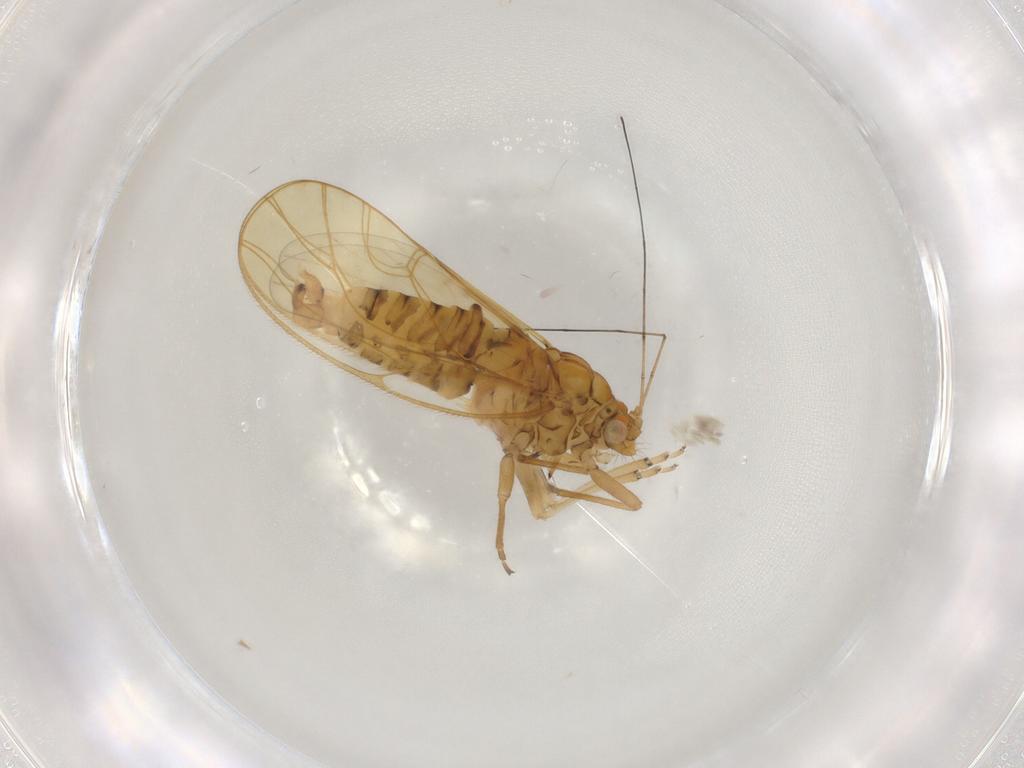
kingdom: Animalia
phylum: Arthropoda
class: Insecta
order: Hemiptera
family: Psyllidae
